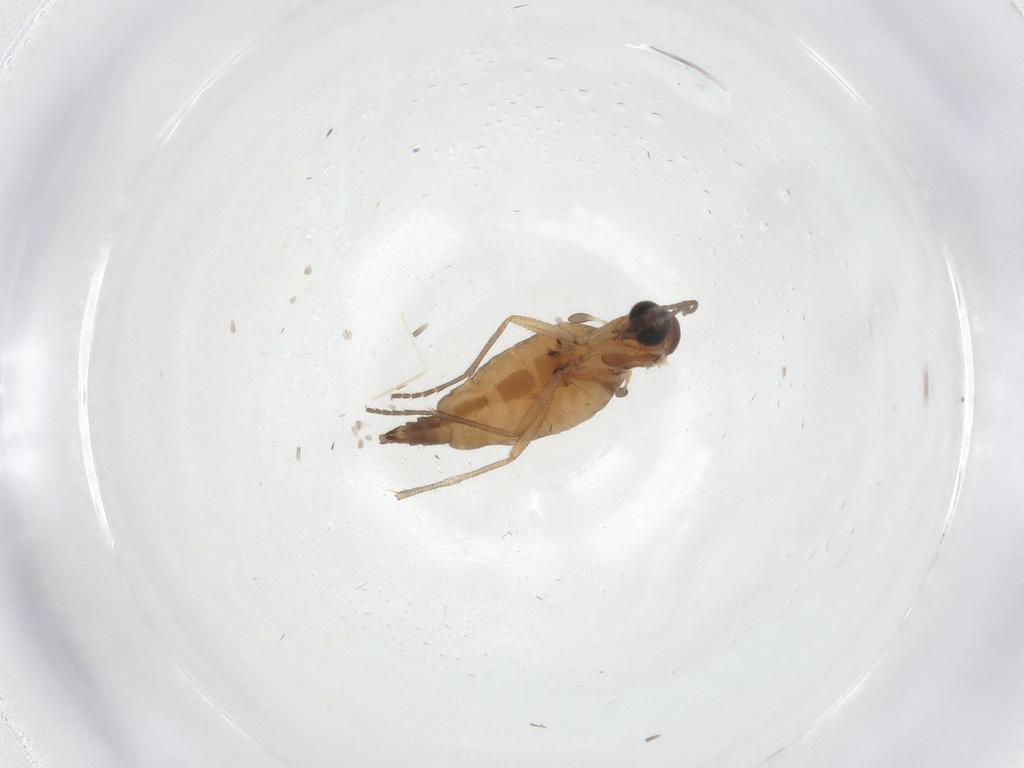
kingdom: Animalia
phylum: Arthropoda
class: Insecta
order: Diptera
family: Sciaridae
